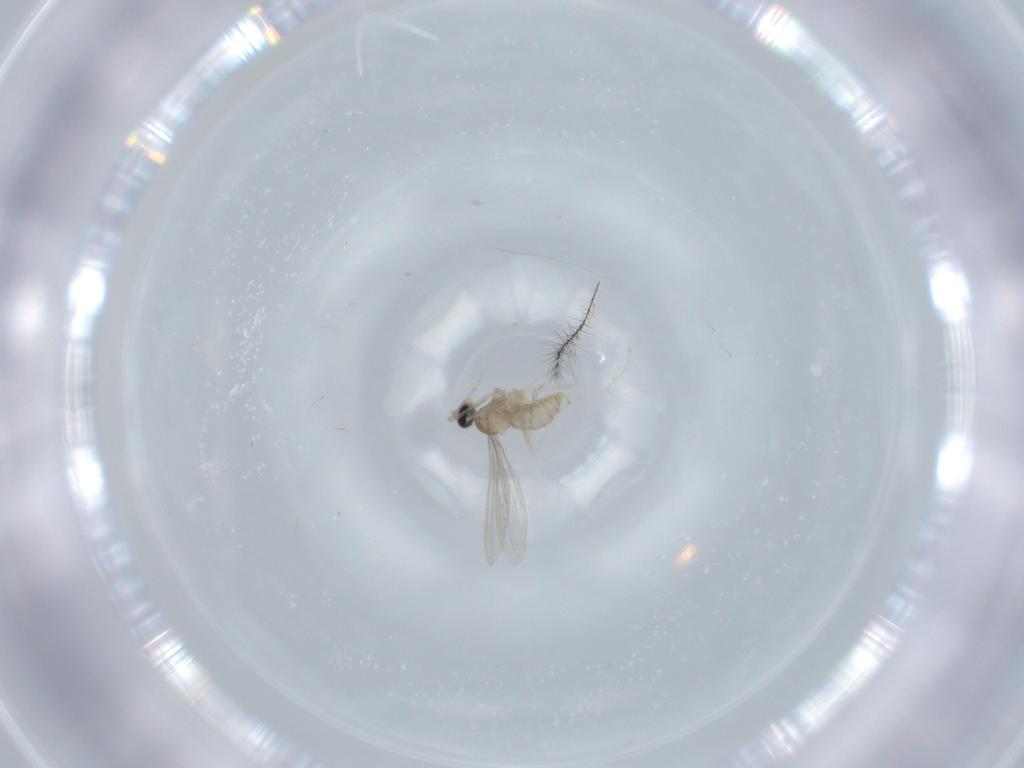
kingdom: Animalia
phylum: Arthropoda
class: Insecta
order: Diptera
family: Cecidomyiidae
